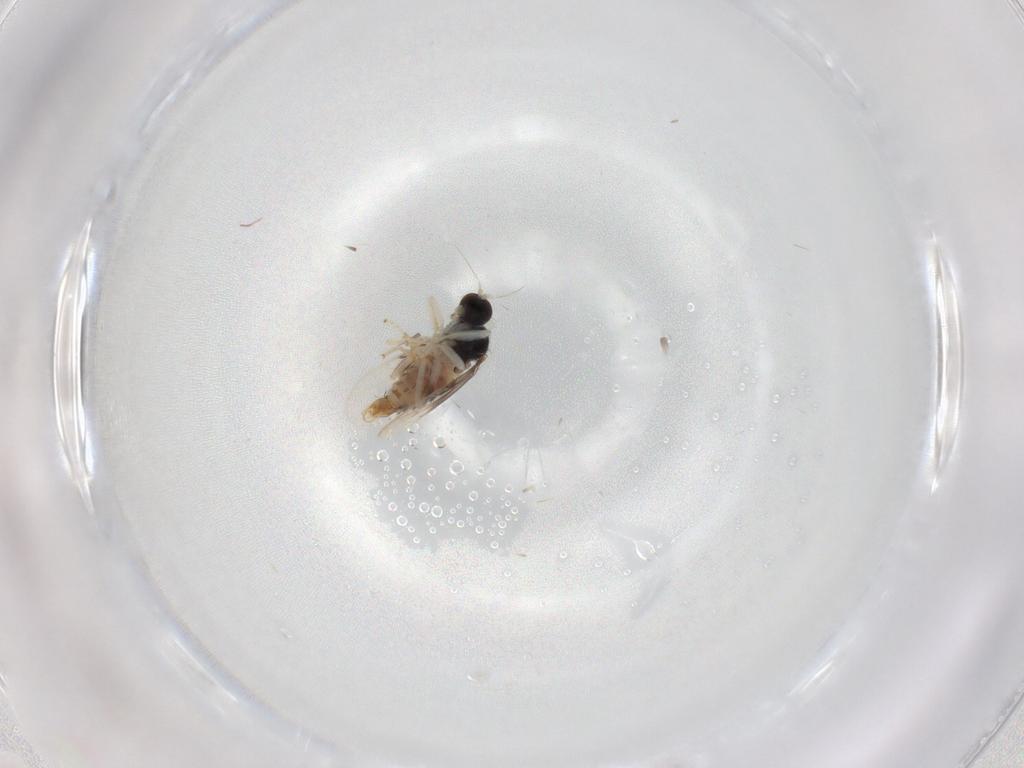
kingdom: Animalia
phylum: Arthropoda
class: Insecta
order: Diptera
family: Hybotidae
